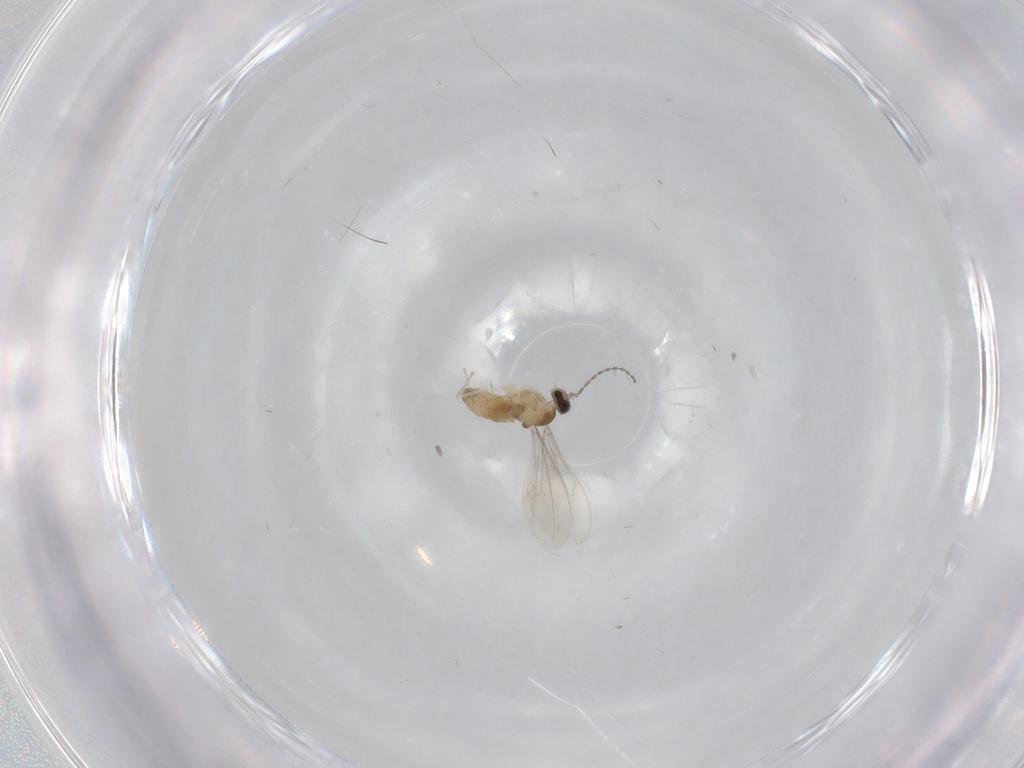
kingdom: Animalia
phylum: Arthropoda
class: Insecta
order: Diptera
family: Cecidomyiidae
